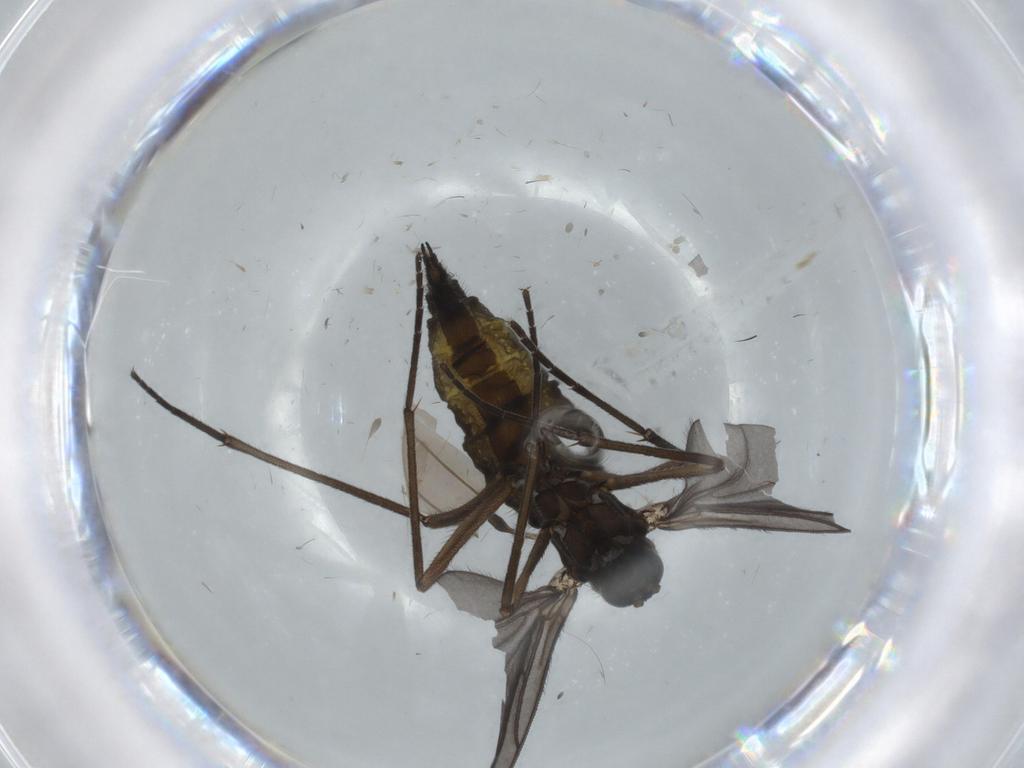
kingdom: Animalia
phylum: Arthropoda
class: Insecta
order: Diptera
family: Sciaridae
